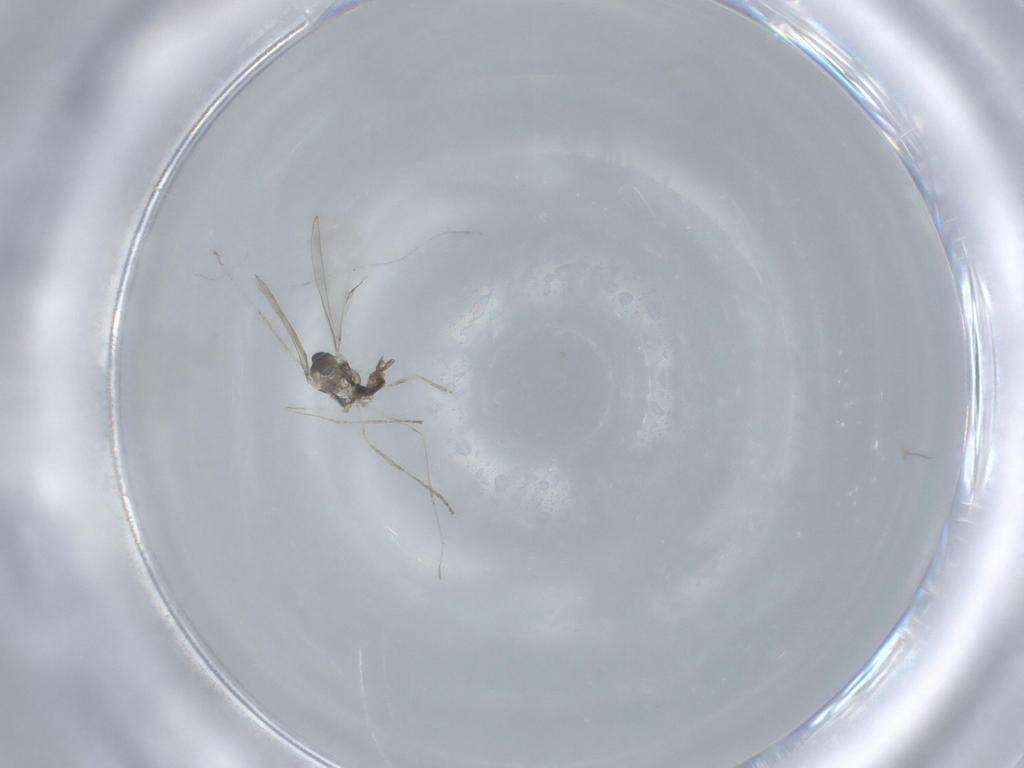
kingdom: Animalia
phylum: Arthropoda
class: Insecta
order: Diptera
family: Cecidomyiidae
